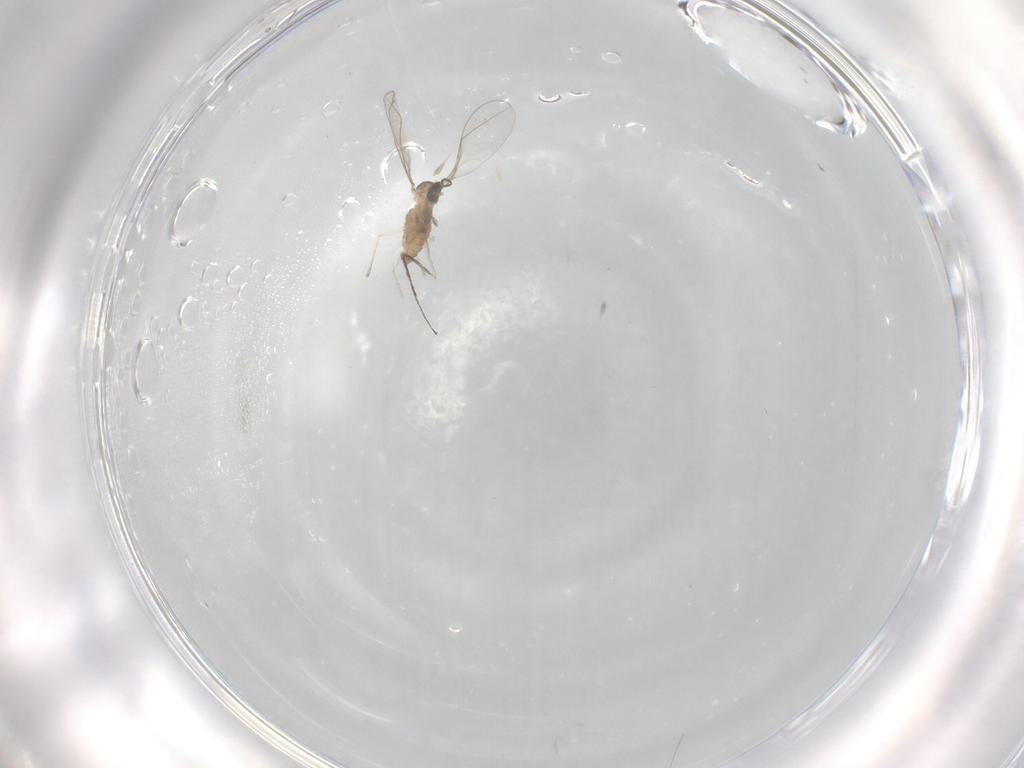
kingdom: Animalia
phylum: Arthropoda
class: Insecta
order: Diptera
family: Cecidomyiidae
